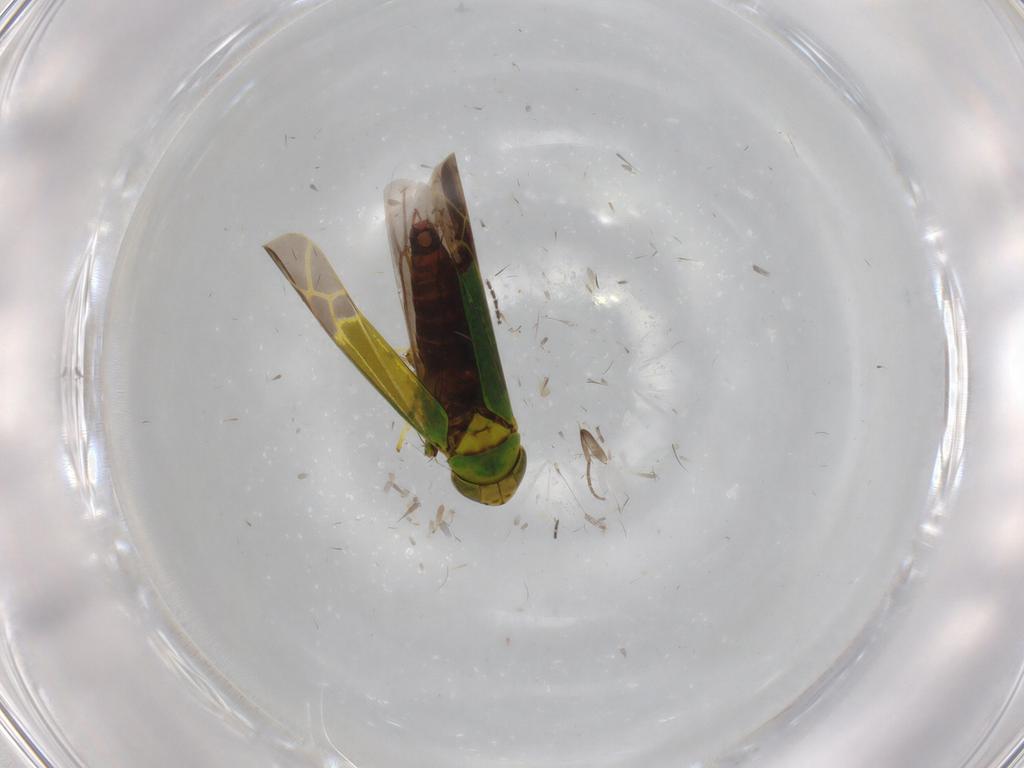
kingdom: Animalia
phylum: Arthropoda
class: Insecta
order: Hemiptera
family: Cicadellidae
